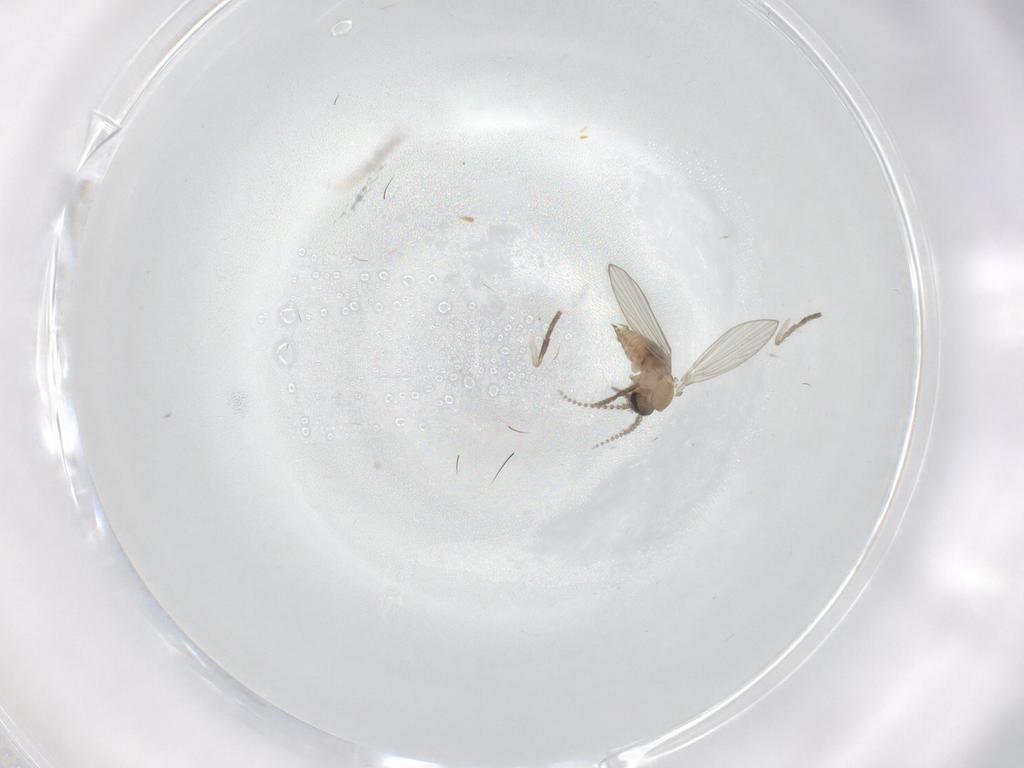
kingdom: Animalia
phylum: Arthropoda
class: Insecta
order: Diptera
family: Psychodidae
